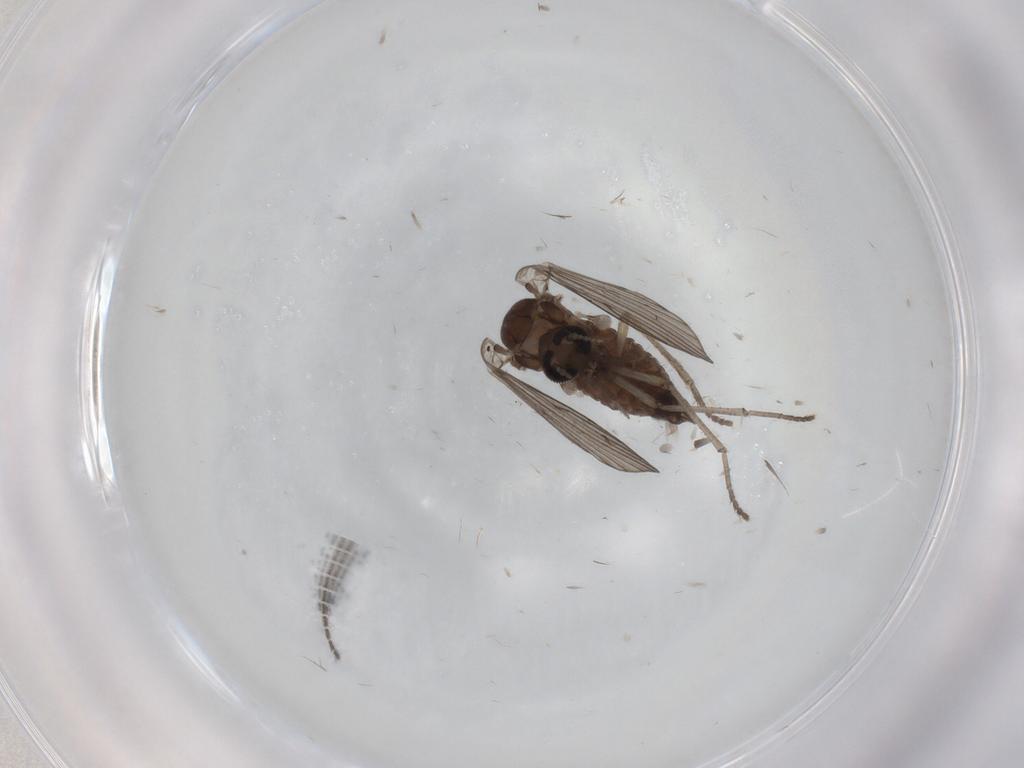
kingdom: Animalia
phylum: Arthropoda
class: Insecta
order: Diptera
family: Psychodidae
